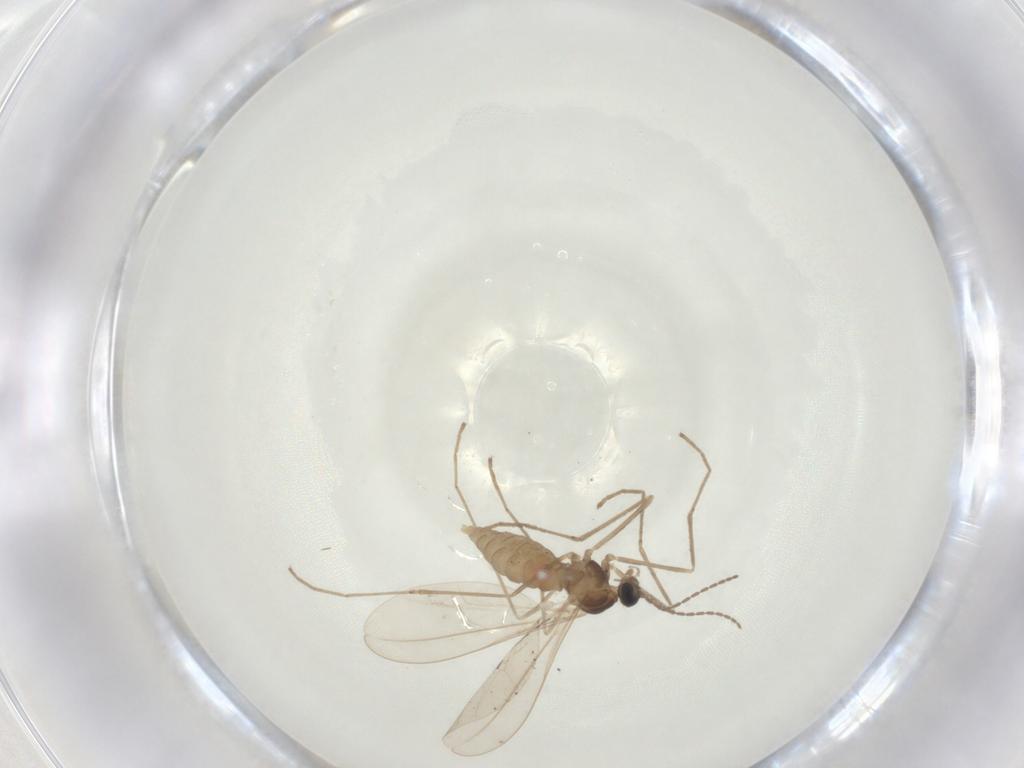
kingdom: Animalia
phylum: Arthropoda
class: Insecta
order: Diptera
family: Cecidomyiidae
